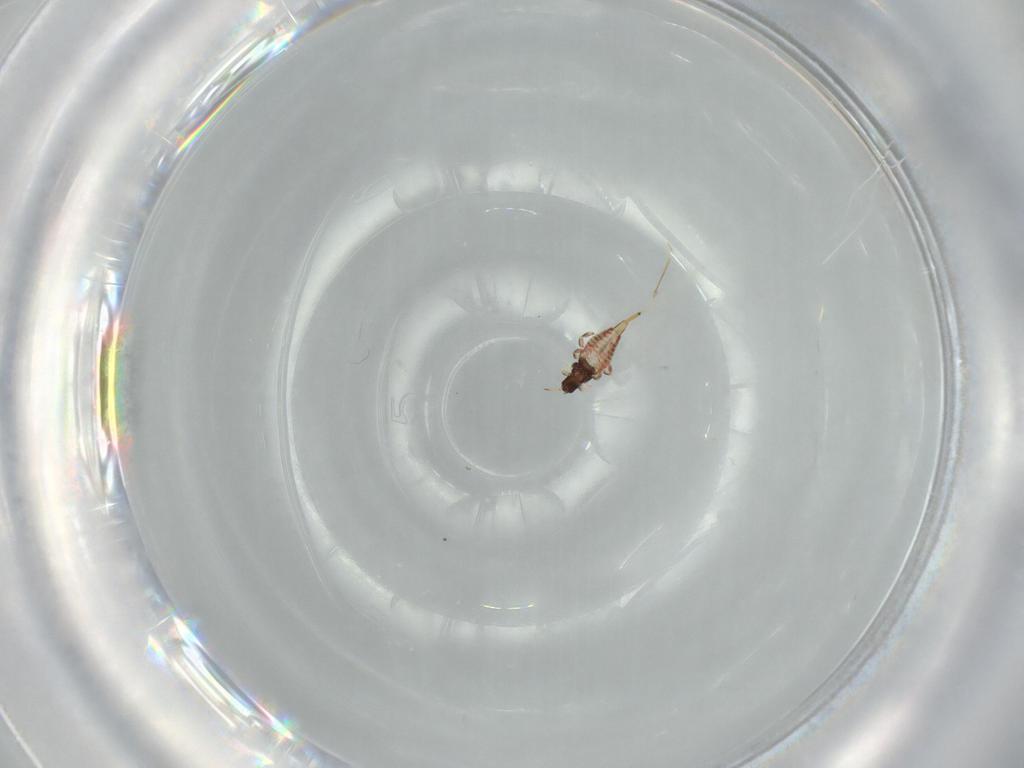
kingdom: Animalia
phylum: Arthropoda
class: Insecta
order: Thysanoptera
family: Phlaeothripidae
